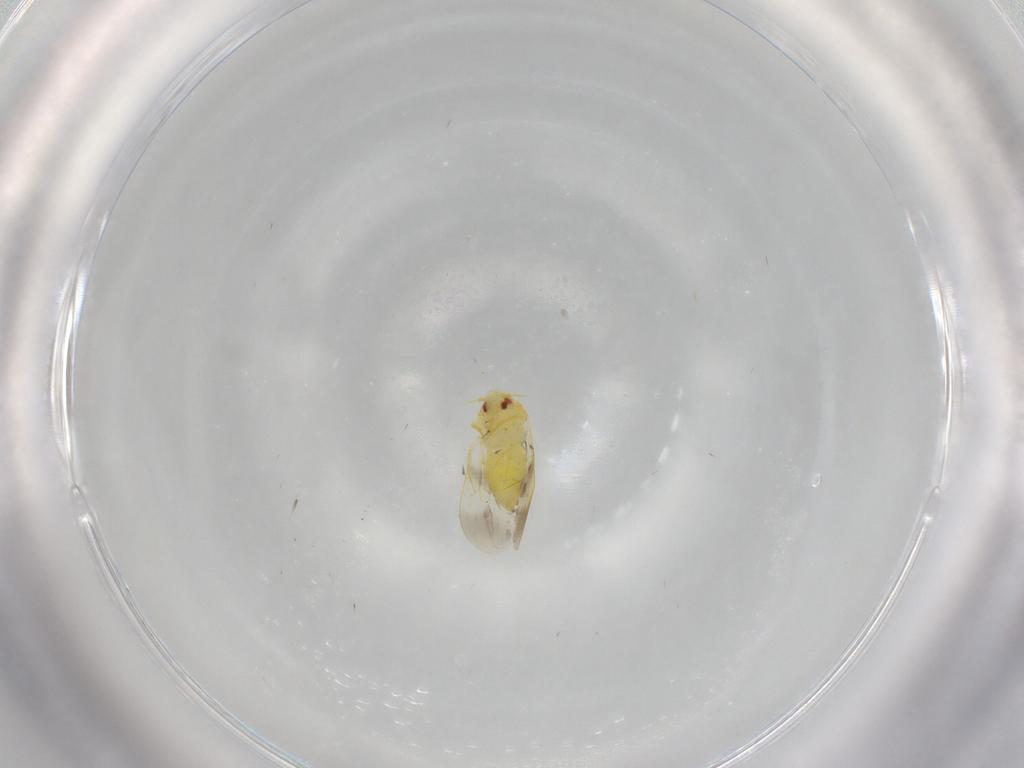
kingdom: Animalia
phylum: Arthropoda
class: Insecta
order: Hemiptera
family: Aleyrodidae
